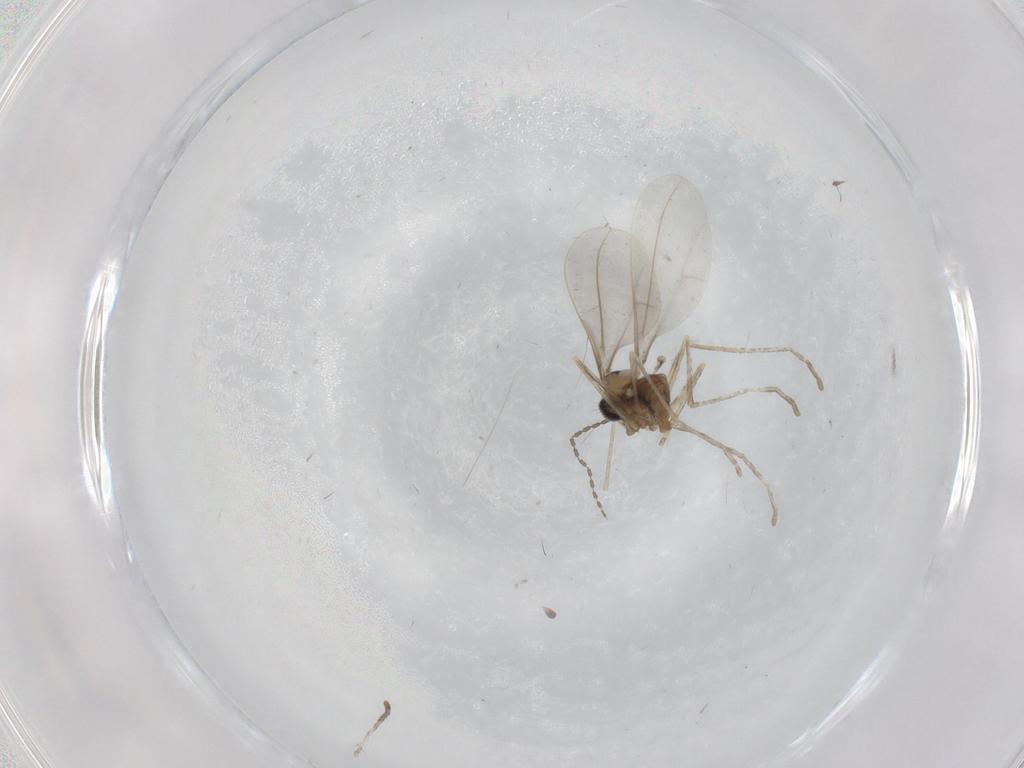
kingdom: Animalia
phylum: Arthropoda
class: Insecta
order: Diptera
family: Cecidomyiidae
